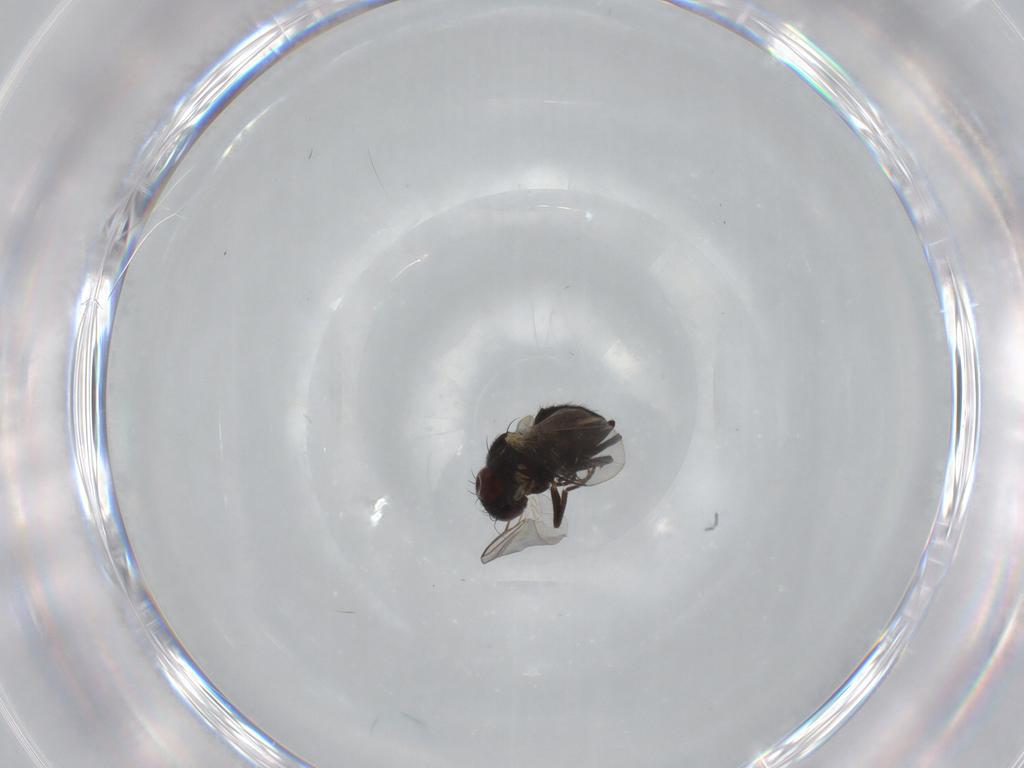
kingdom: Animalia
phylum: Arthropoda
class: Insecta
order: Diptera
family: Agromyzidae
